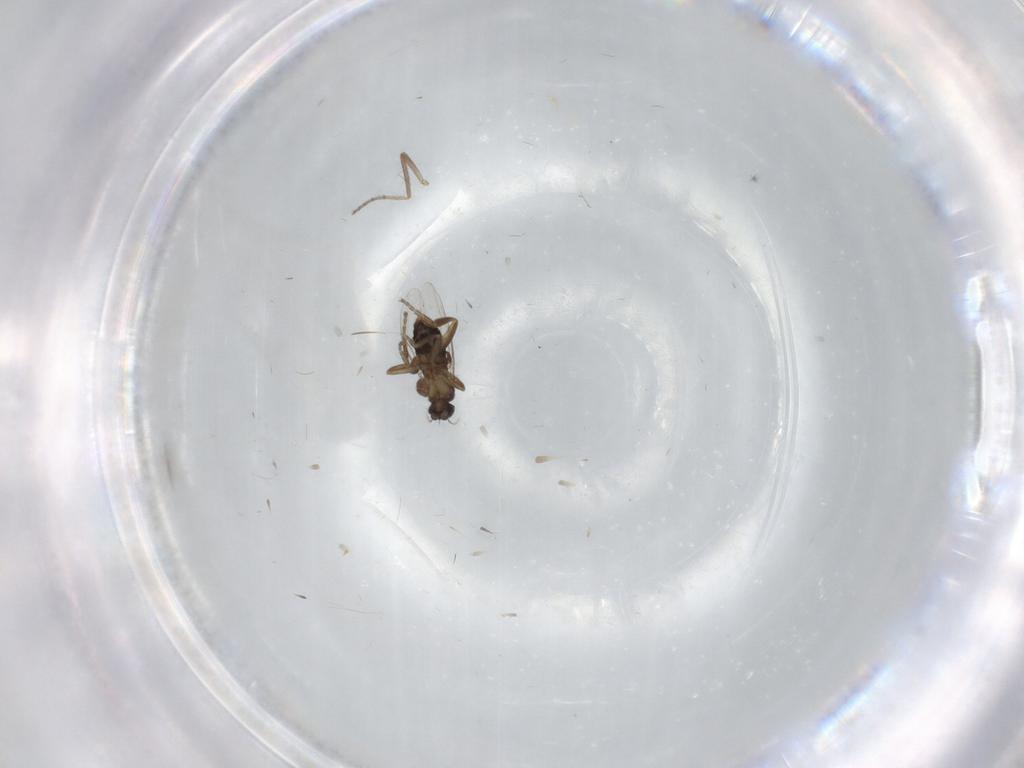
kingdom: Animalia
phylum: Arthropoda
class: Insecta
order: Diptera
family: Ceratopogonidae
